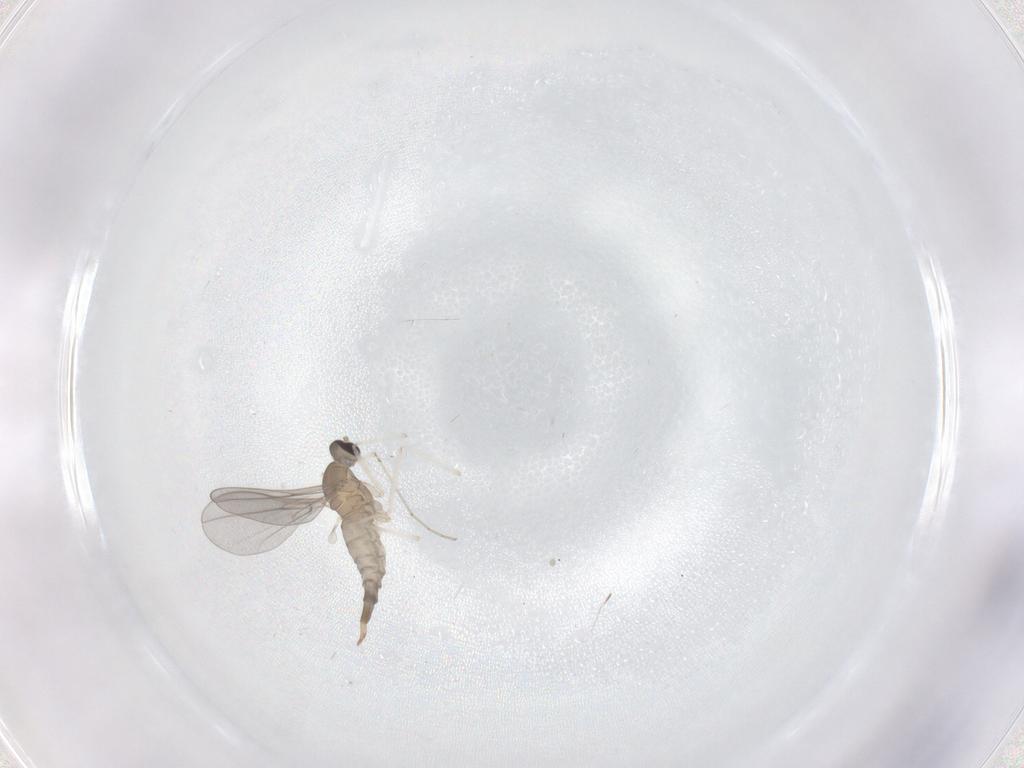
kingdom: Animalia
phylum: Arthropoda
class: Insecta
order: Diptera
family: Cecidomyiidae
